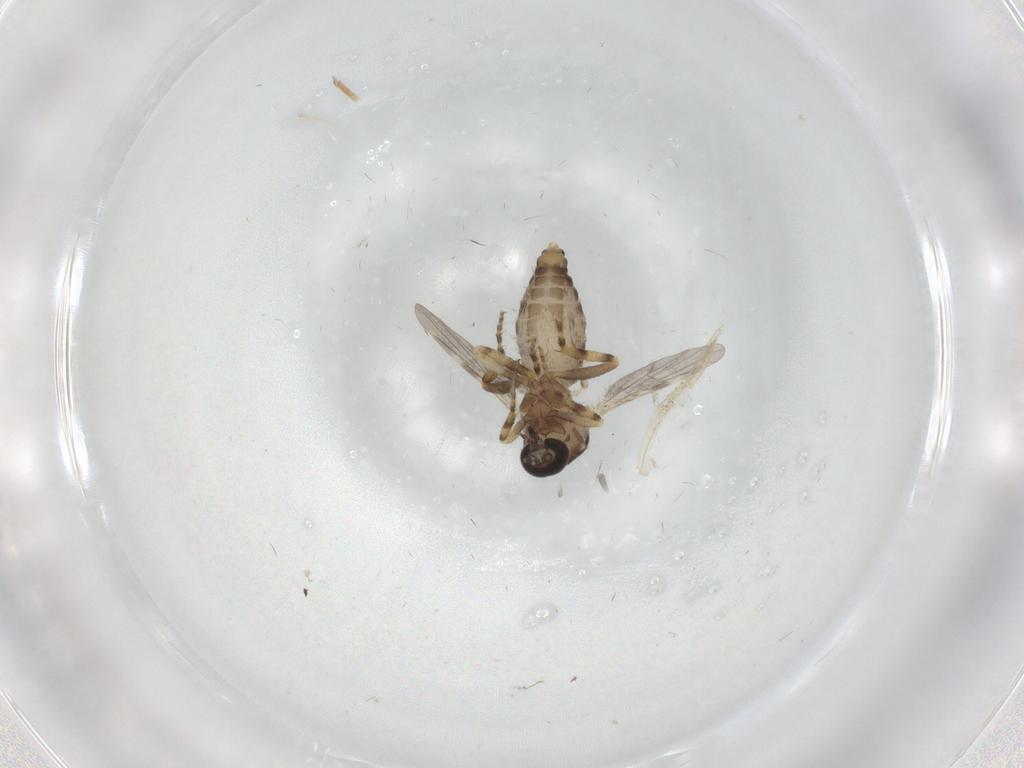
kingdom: Animalia
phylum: Arthropoda
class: Insecta
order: Diptera
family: Ceratopogonidae
